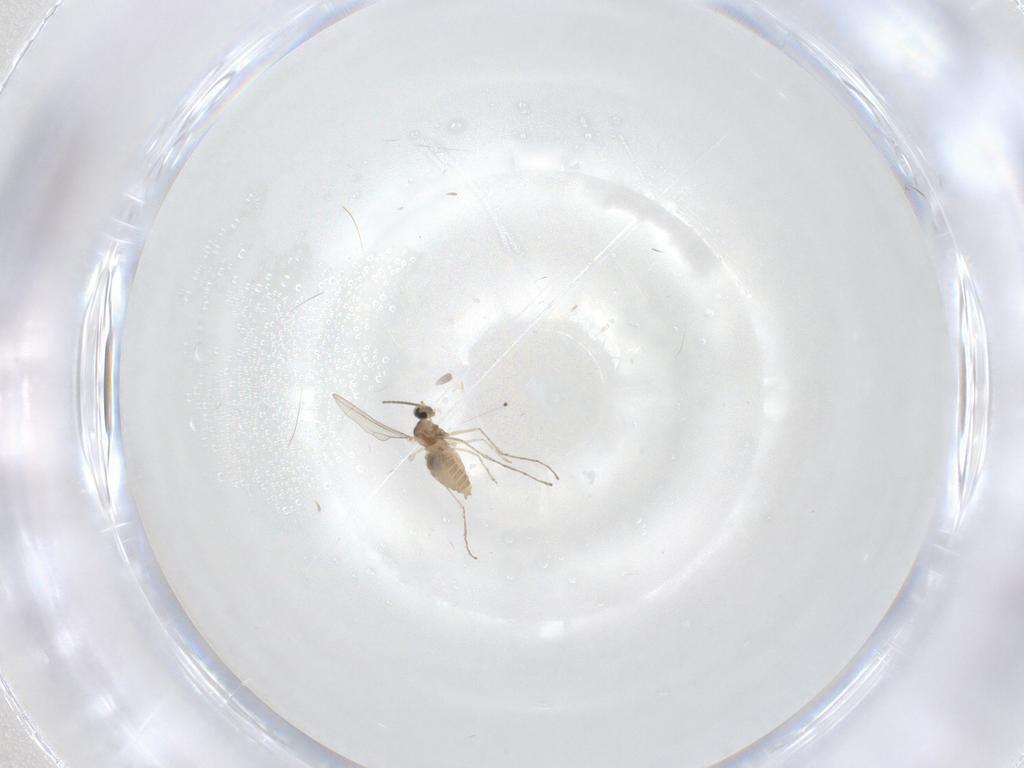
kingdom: Animalia
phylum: Arthropoda
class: Insecta
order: Diptera
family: Cecidomyiidae
